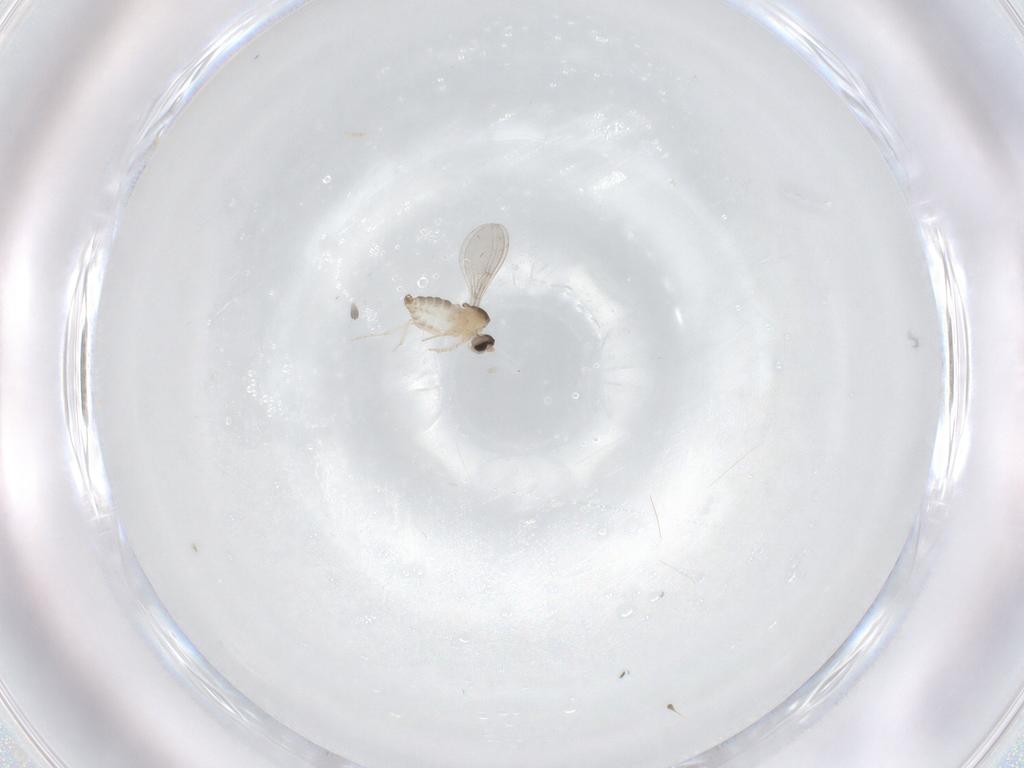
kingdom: Animalia
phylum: Arthropoda
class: Insecta
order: Diptera
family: Cecidomyiidae
